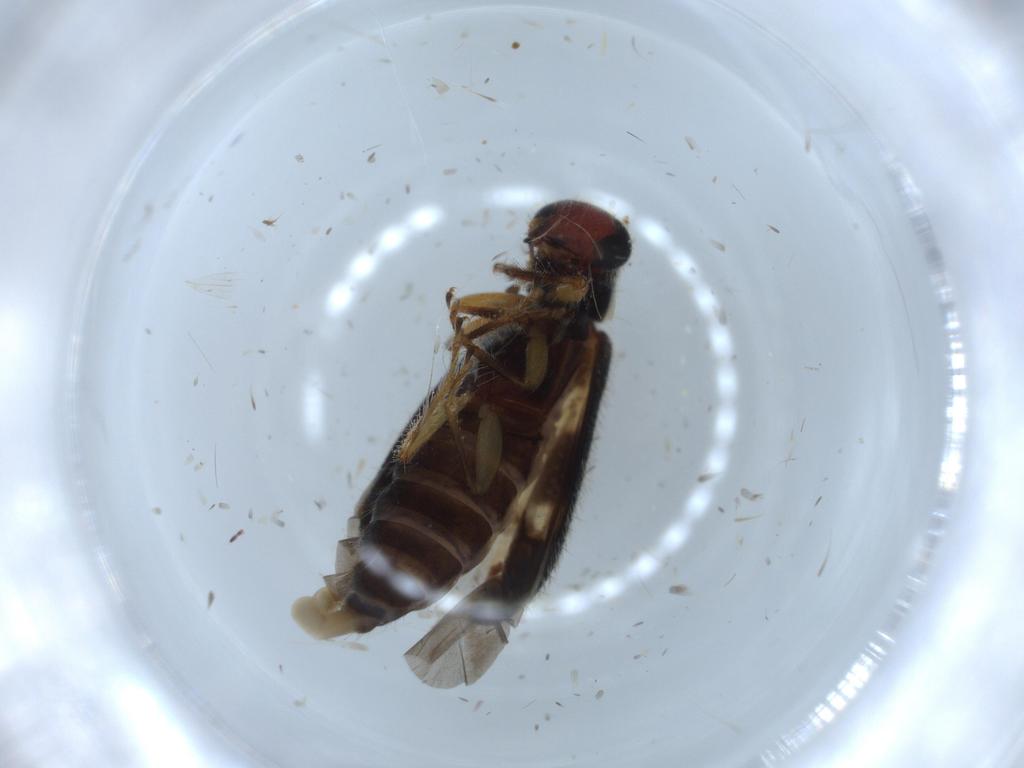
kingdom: Animalia
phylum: Arthropoda
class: Insecta
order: Coleoptera
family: Cleridae
